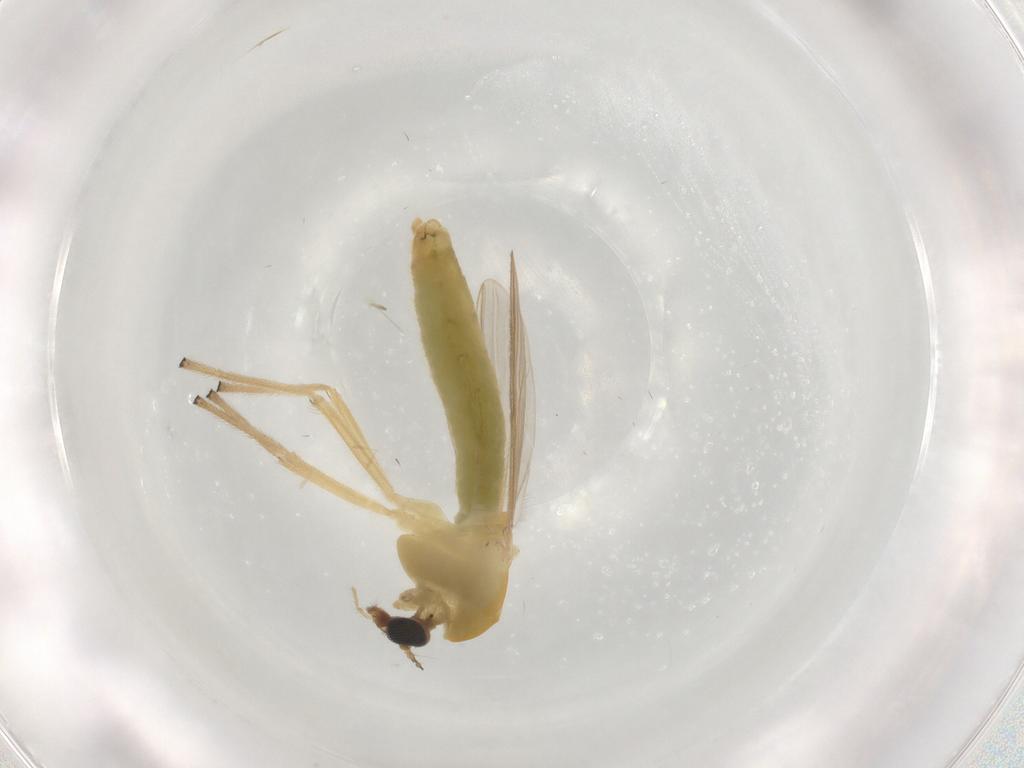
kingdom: Animalia
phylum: Arthropoda
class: Insecta
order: Diptera
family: Chironomidae
